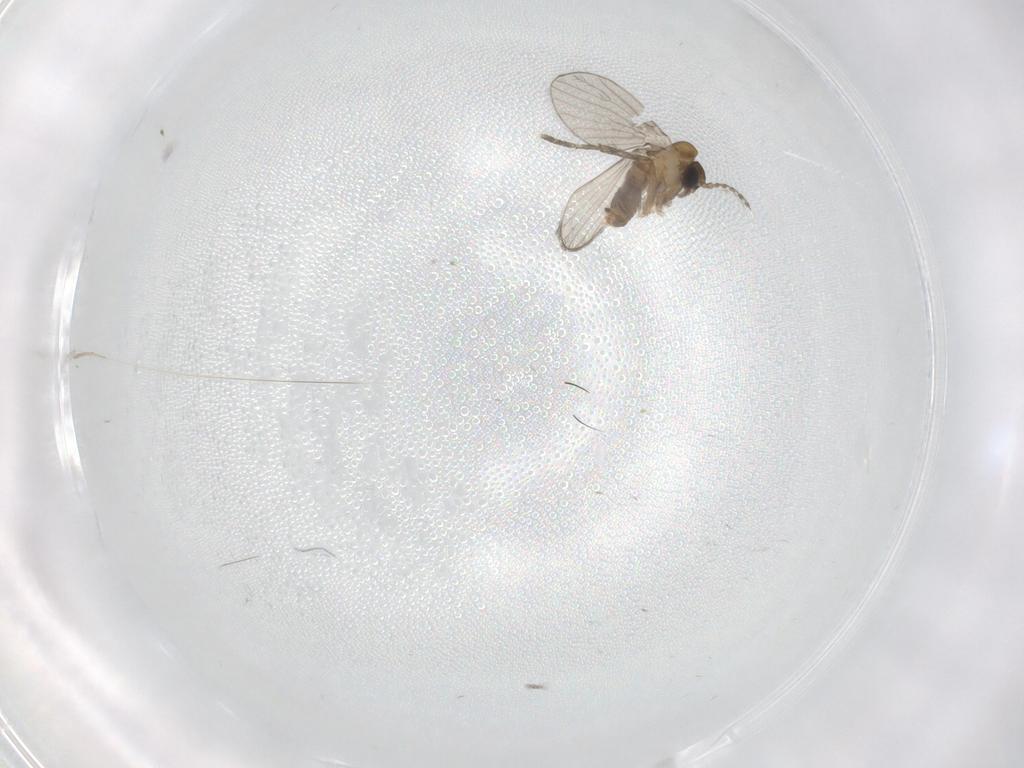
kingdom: Animalia
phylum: Arthropoda
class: Insecta
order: Diptera
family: Psychodidae
